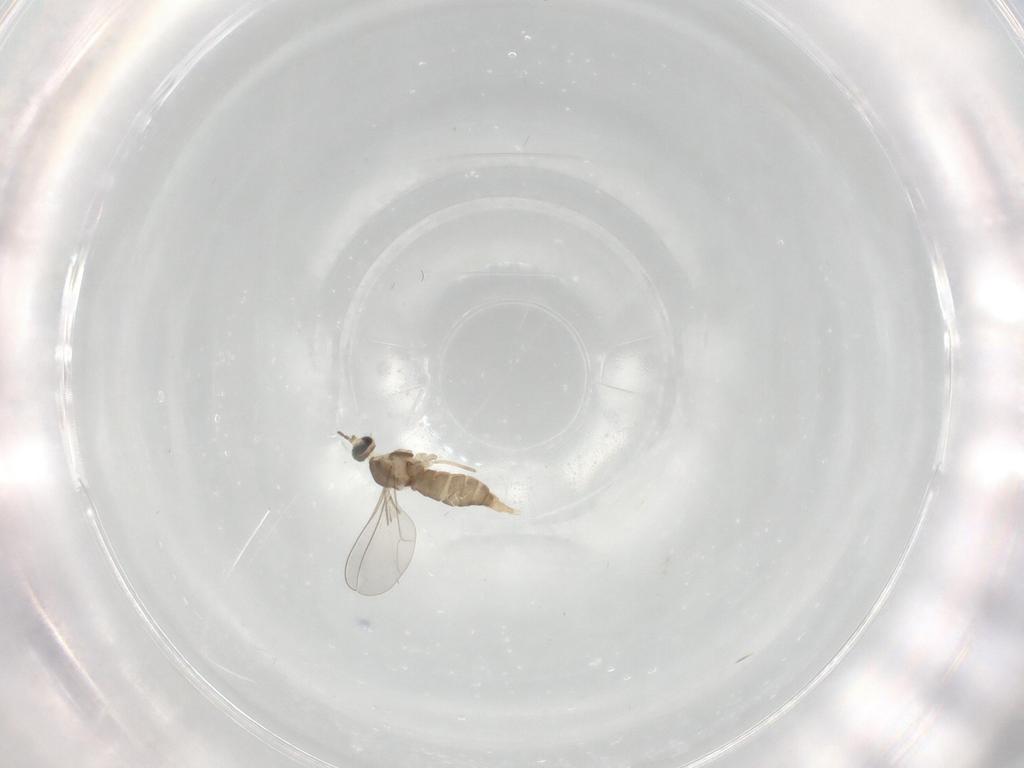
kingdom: Animalia
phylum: Arthropoda
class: Insecta
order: Diptera
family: Cecidomyiidae
